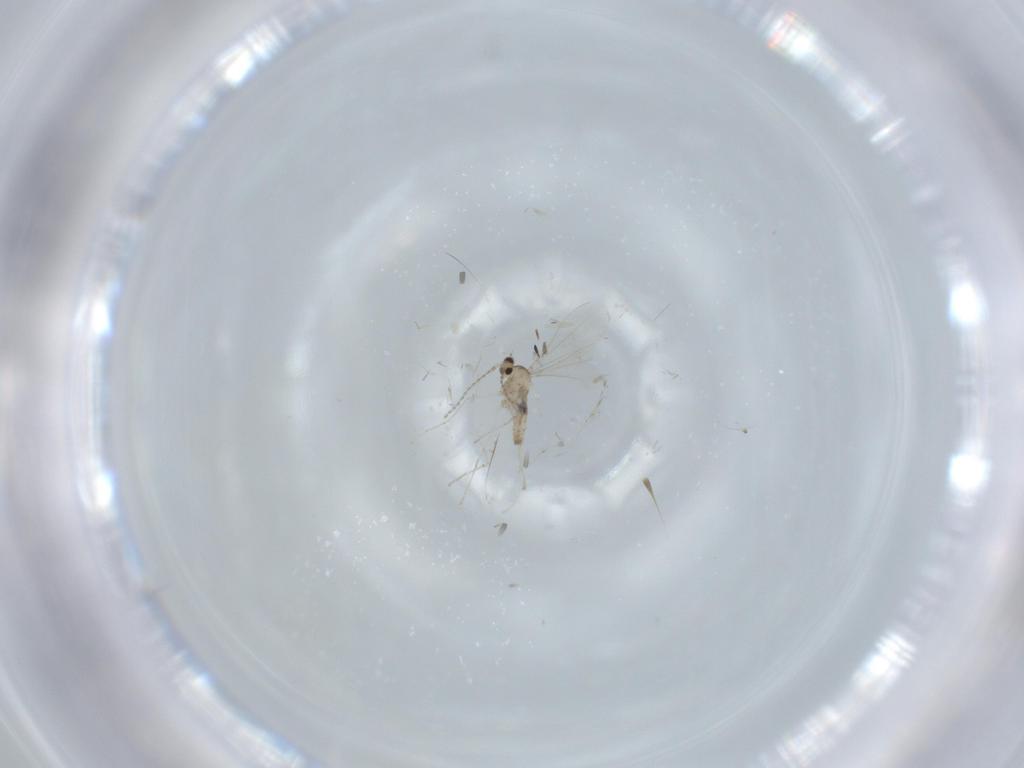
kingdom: Animalia
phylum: Arthropoda
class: Insecta
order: Diptera
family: Cecidomyiidae
